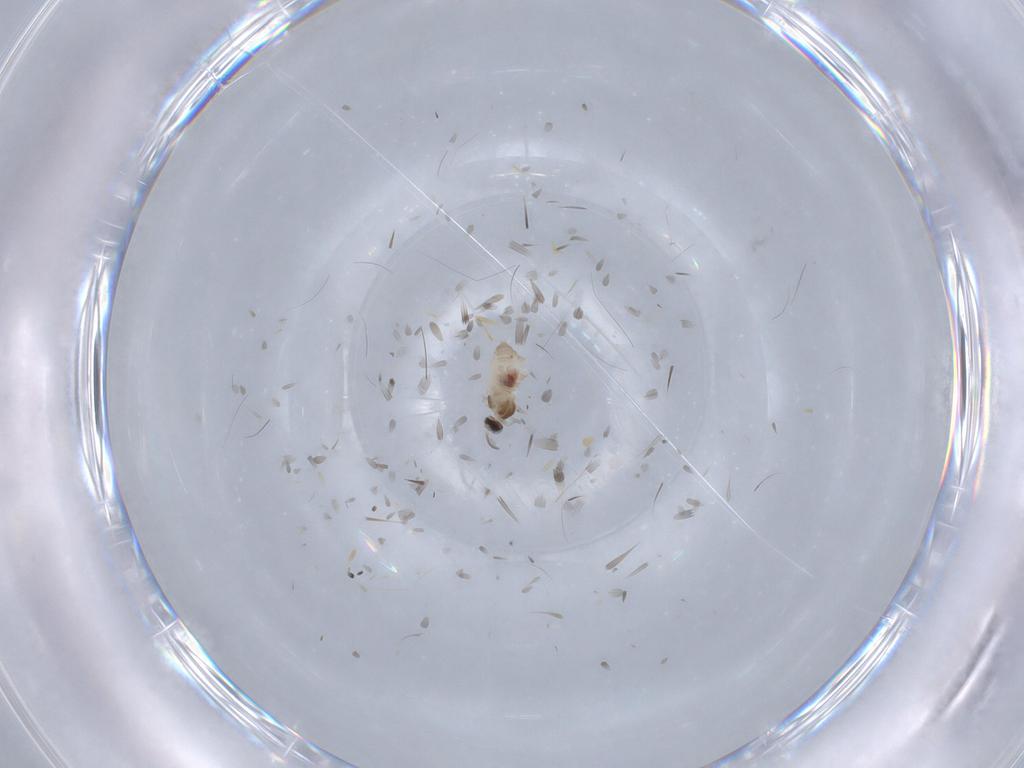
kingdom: Animalia
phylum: Arthropoda
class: Insecta
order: Diptera
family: Cecidomyiidae
